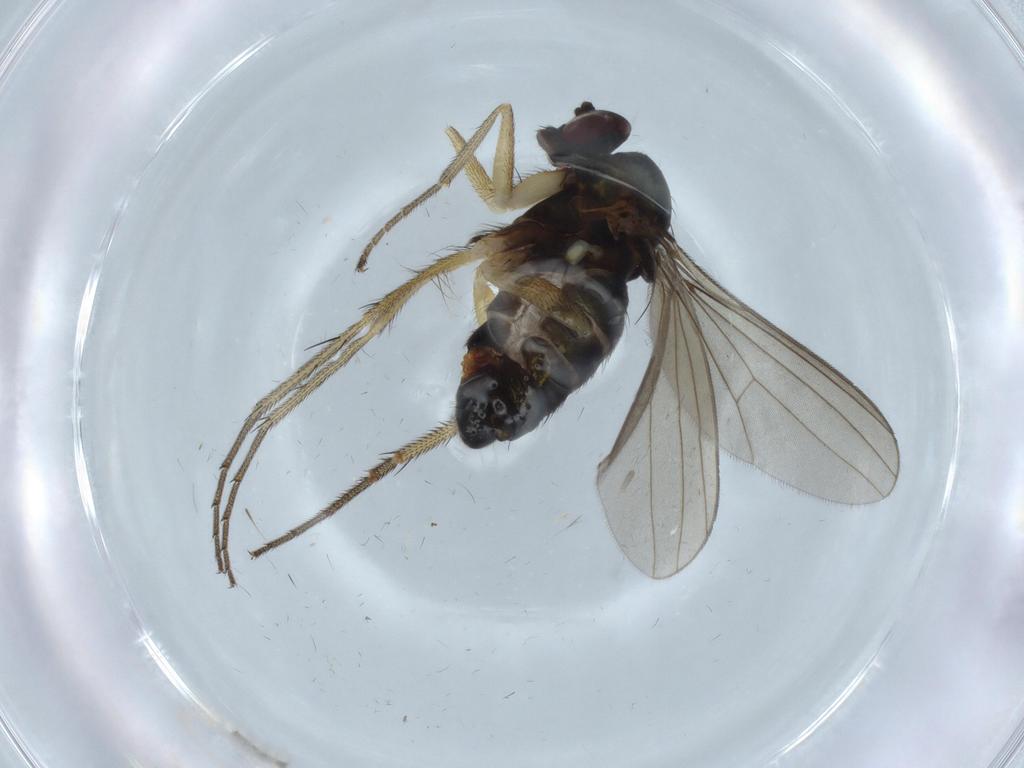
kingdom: Animalia
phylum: Arthropoda
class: Insecta
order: Diptera
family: Dolichopodidae
